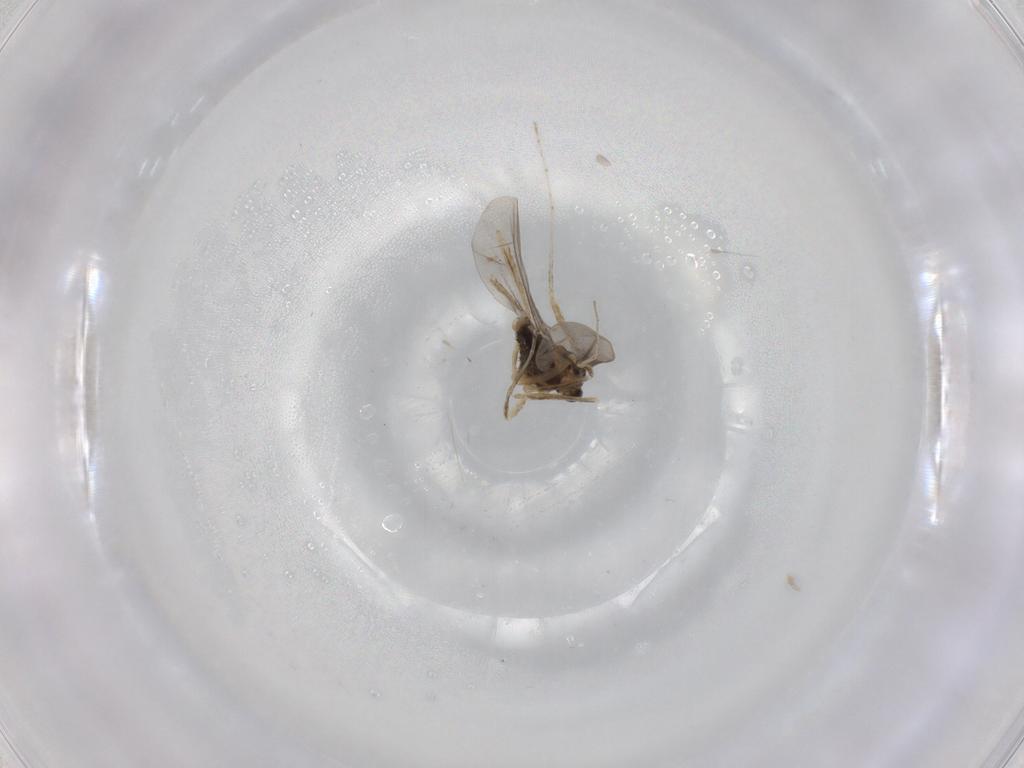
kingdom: Animalia
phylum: Arthropoda
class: Insecta
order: Diptera
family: Cecidomyiidae
